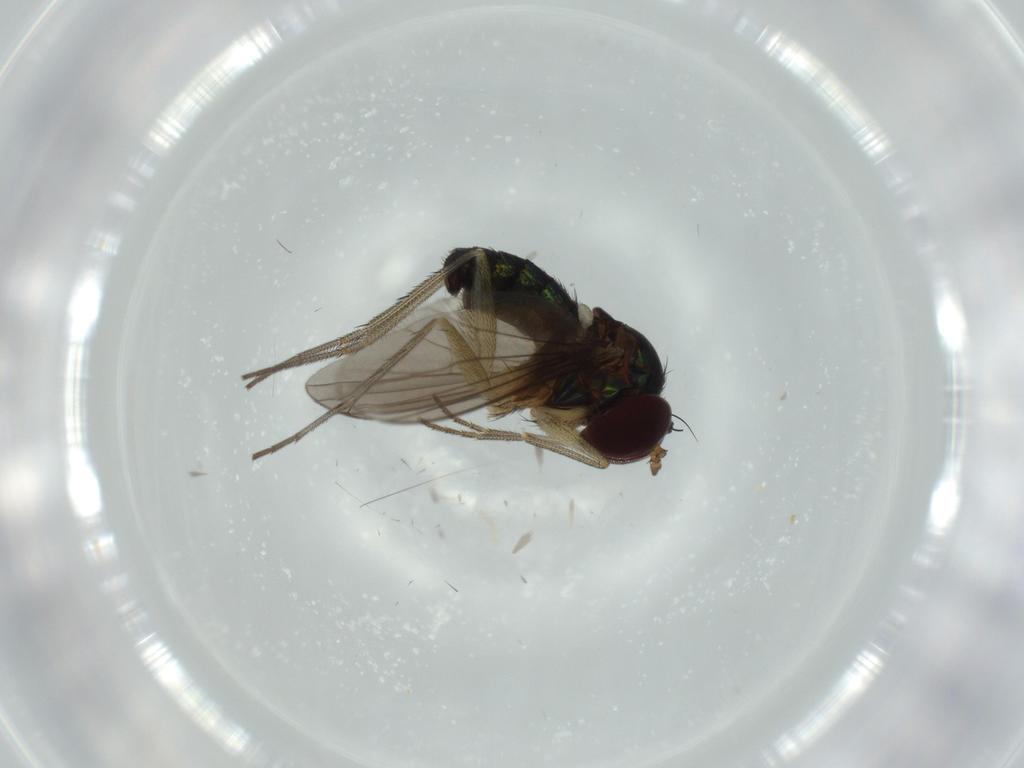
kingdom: Animalia
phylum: Arthropoda
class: Insecta
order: Diptera
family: Dolichopodidae
